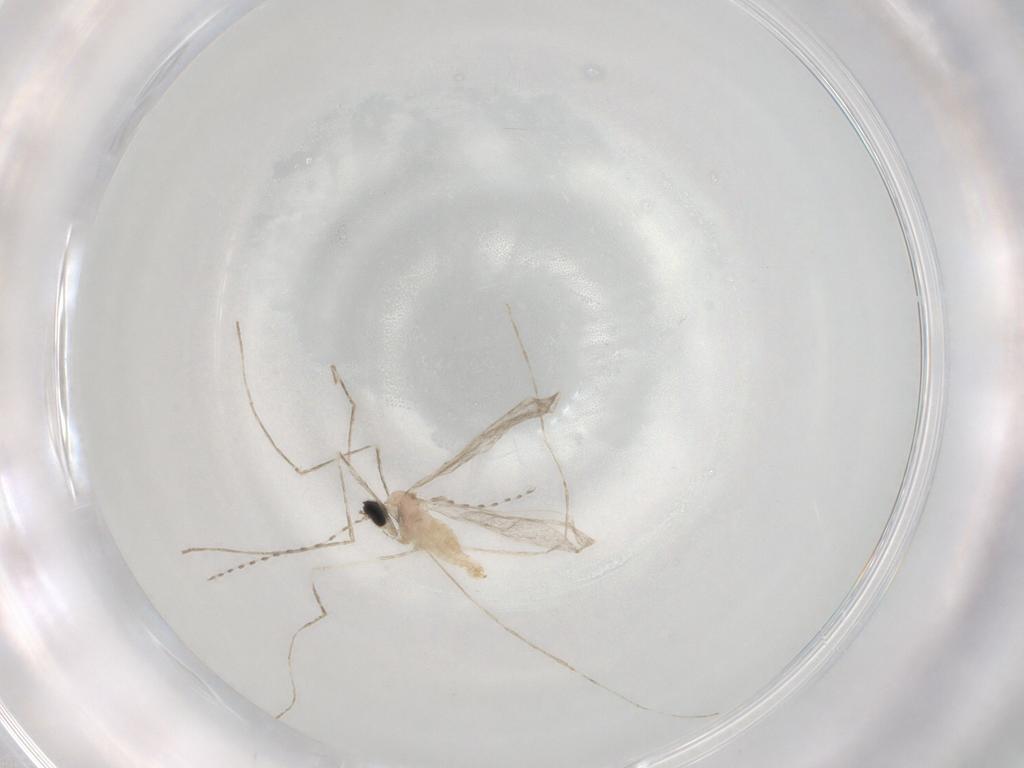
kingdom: Animalia
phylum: Arthropoda
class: Insecta
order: Diptera
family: Cecidomyiidae
